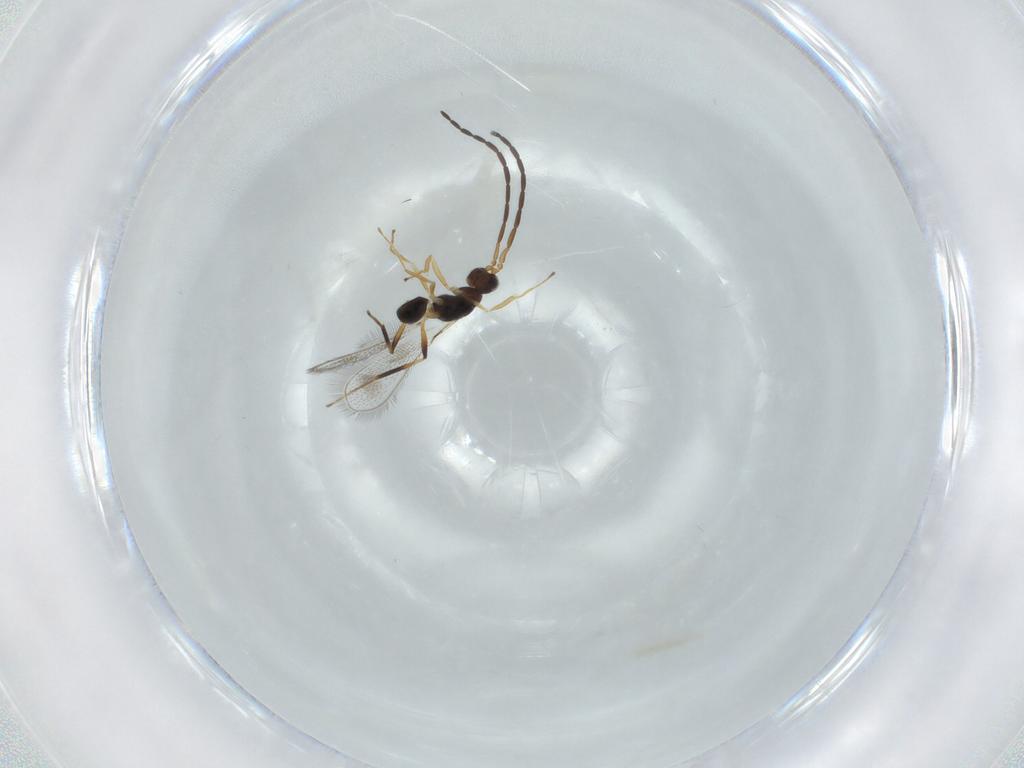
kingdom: Animalia
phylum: Arthropoda
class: Insecta
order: Hymenoptera
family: Mymaridae
